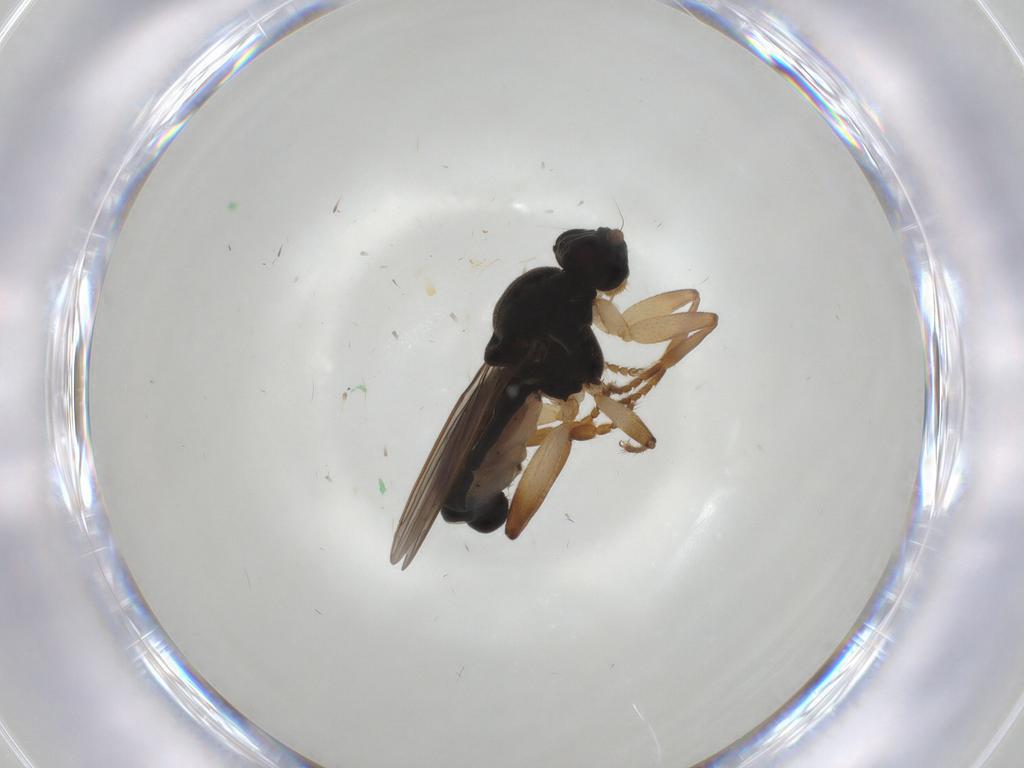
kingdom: Animalia
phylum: Arthropoda
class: Insecta
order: Diptera
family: Sphaeroceridae
